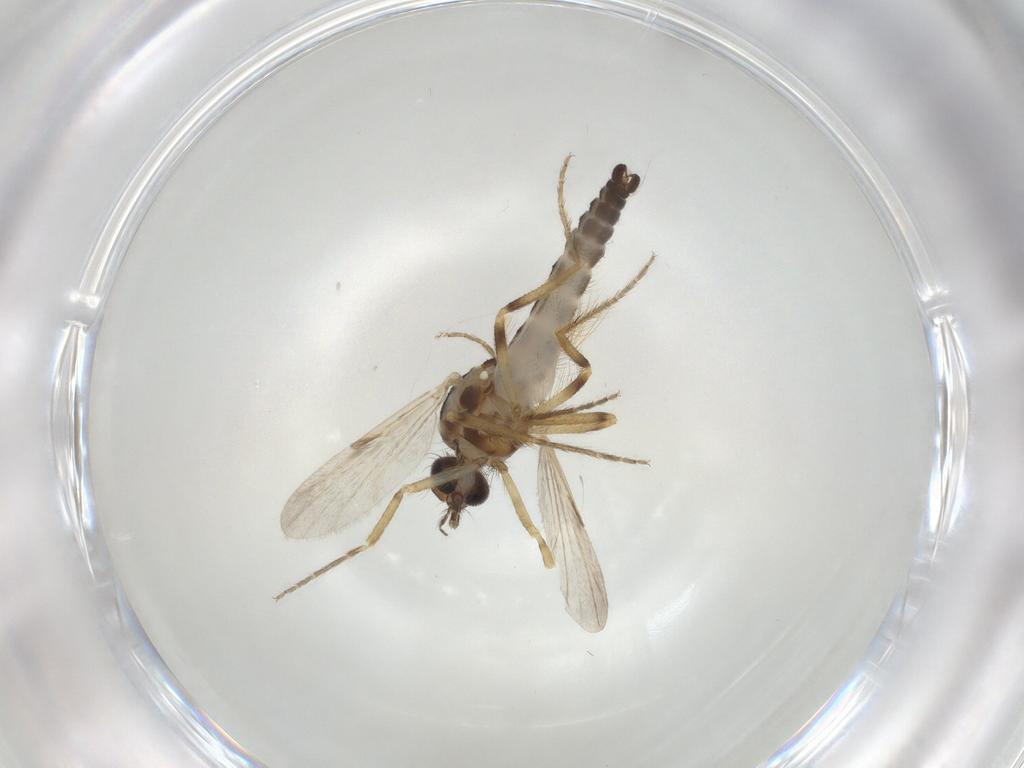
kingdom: Animalia
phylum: Arthropoda
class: Insecta
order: Diptera
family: Ceratopogonidae
